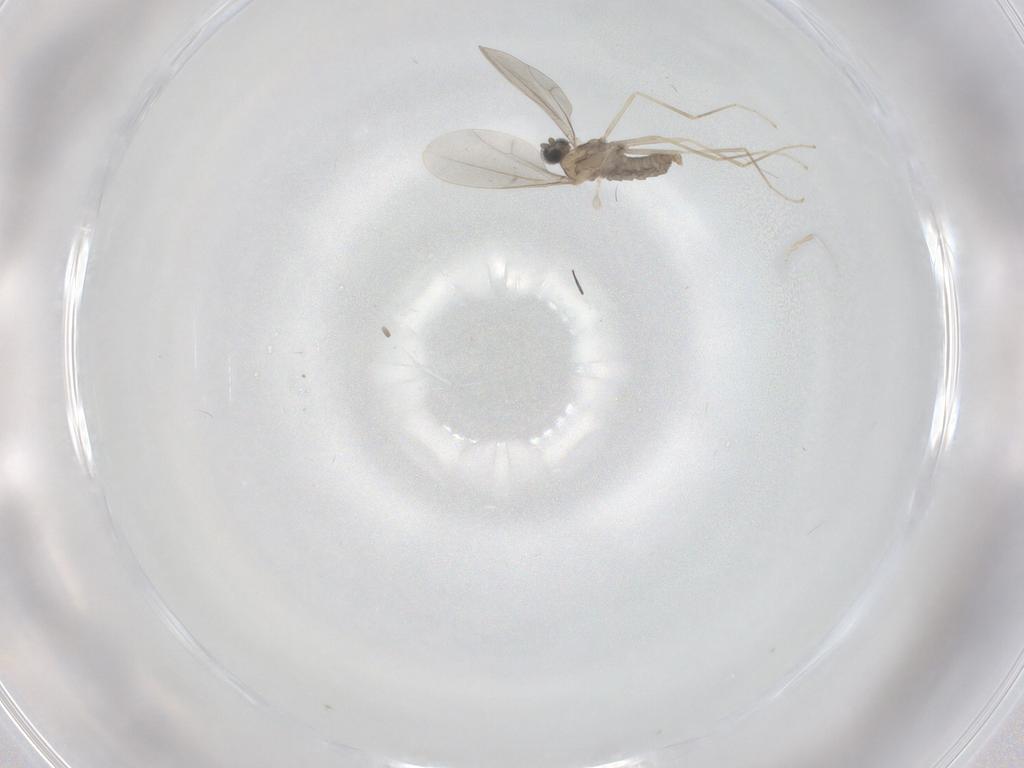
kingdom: Animalia
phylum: Arthropoda
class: Insecta
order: Diptera
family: Cecidomyiidae
